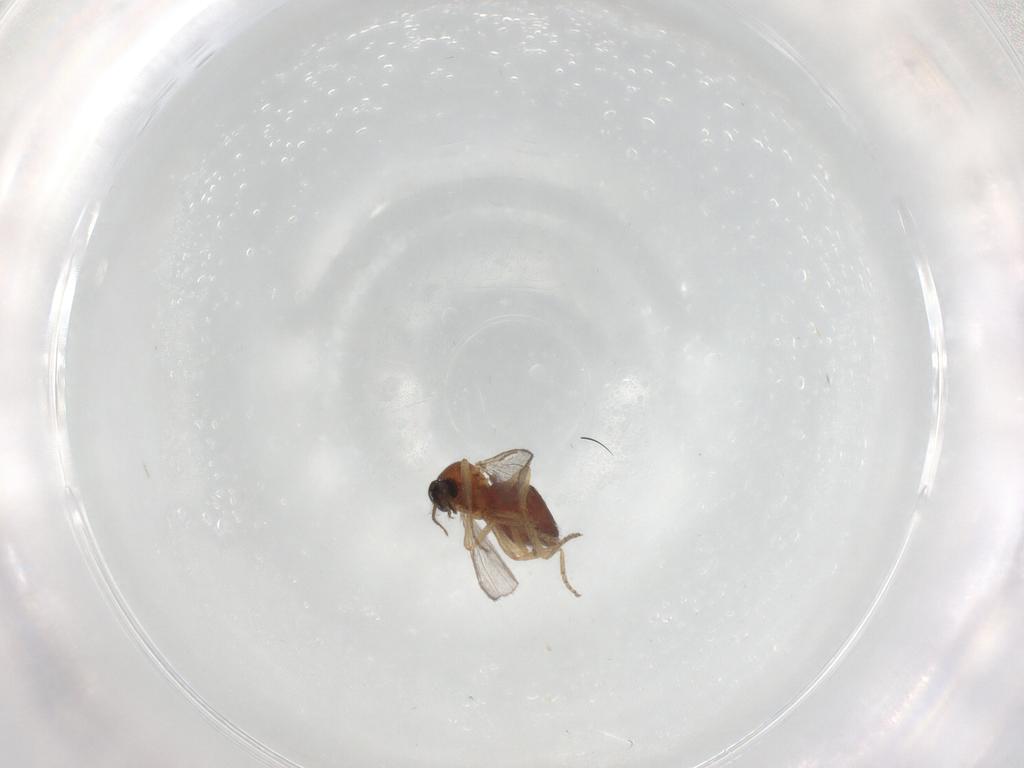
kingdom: Animalia
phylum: Arthropoda
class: Insecta
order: Diptera
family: Ceratopogonidae
